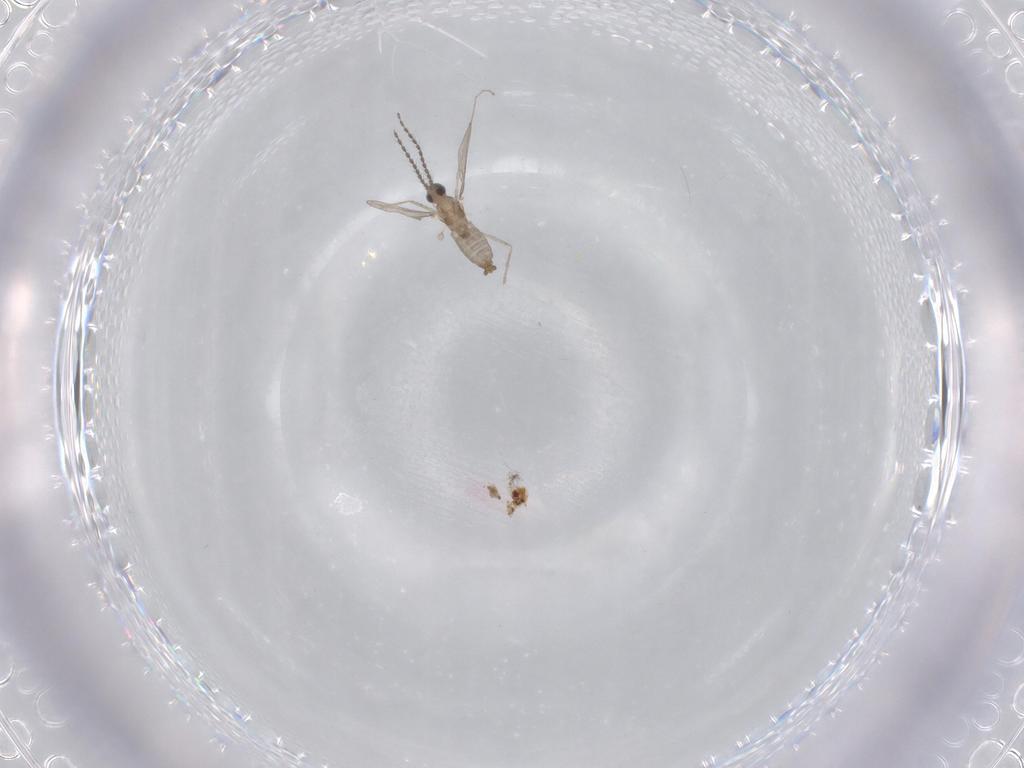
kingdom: Animalia
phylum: Arthropoda
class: Insecta
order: Diptera
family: Chironomidae
